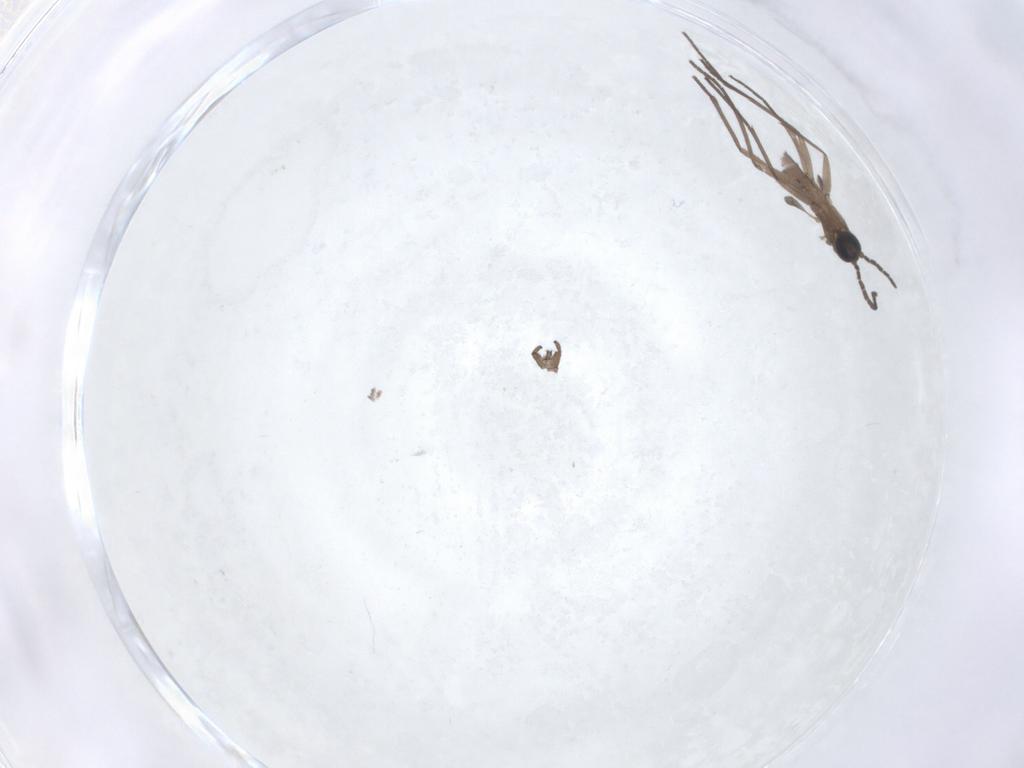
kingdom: Animalia
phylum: Arthropoda
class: Insecta
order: Diptera
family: Sciaridae
